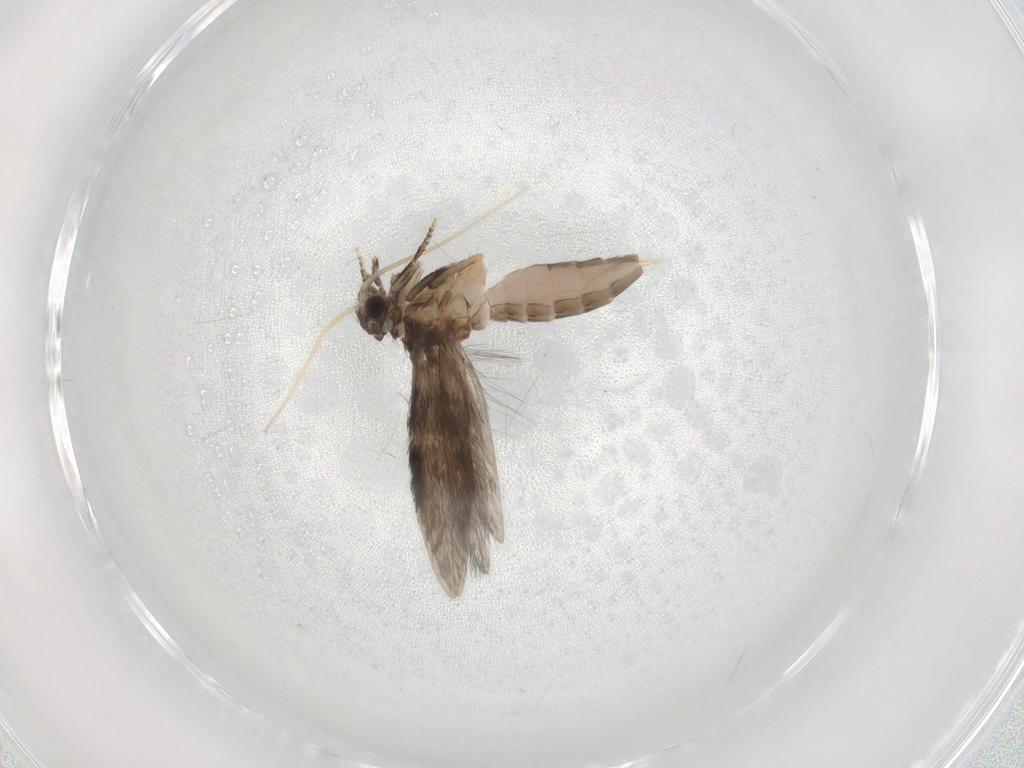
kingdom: Animalia
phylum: Arthropoda
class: Insecta
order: Trichoptera
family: Hydroptilidae
